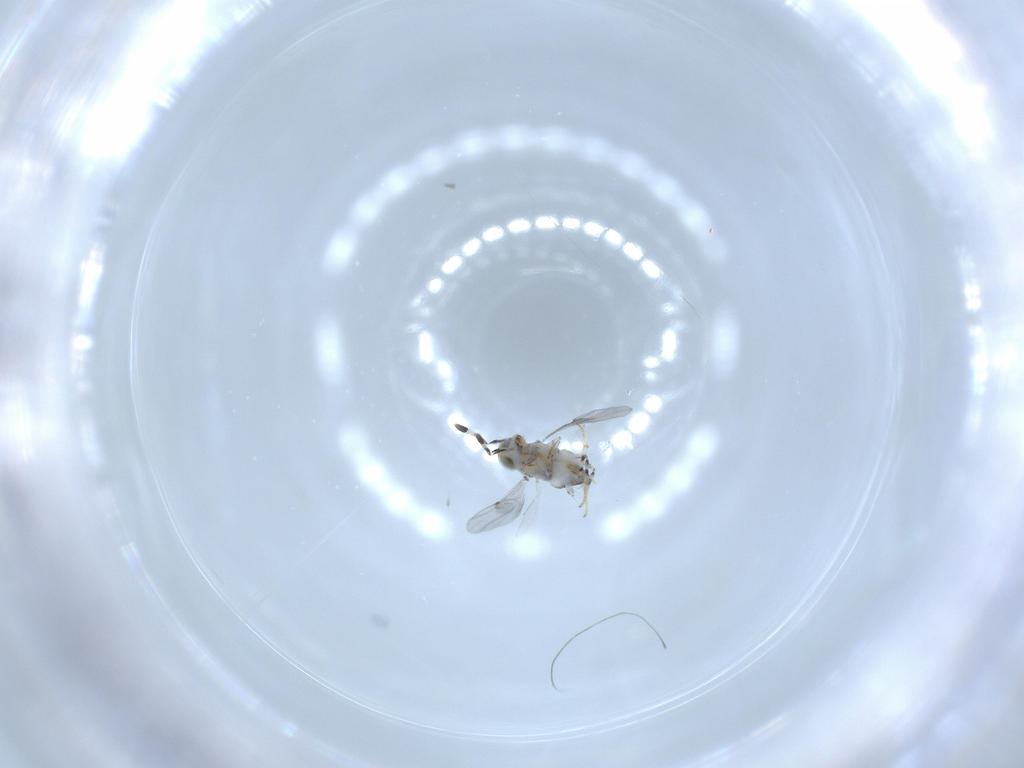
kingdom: Animalia
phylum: Arthropoda
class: Insecta
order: Hymenoptera
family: Encyrtidae
